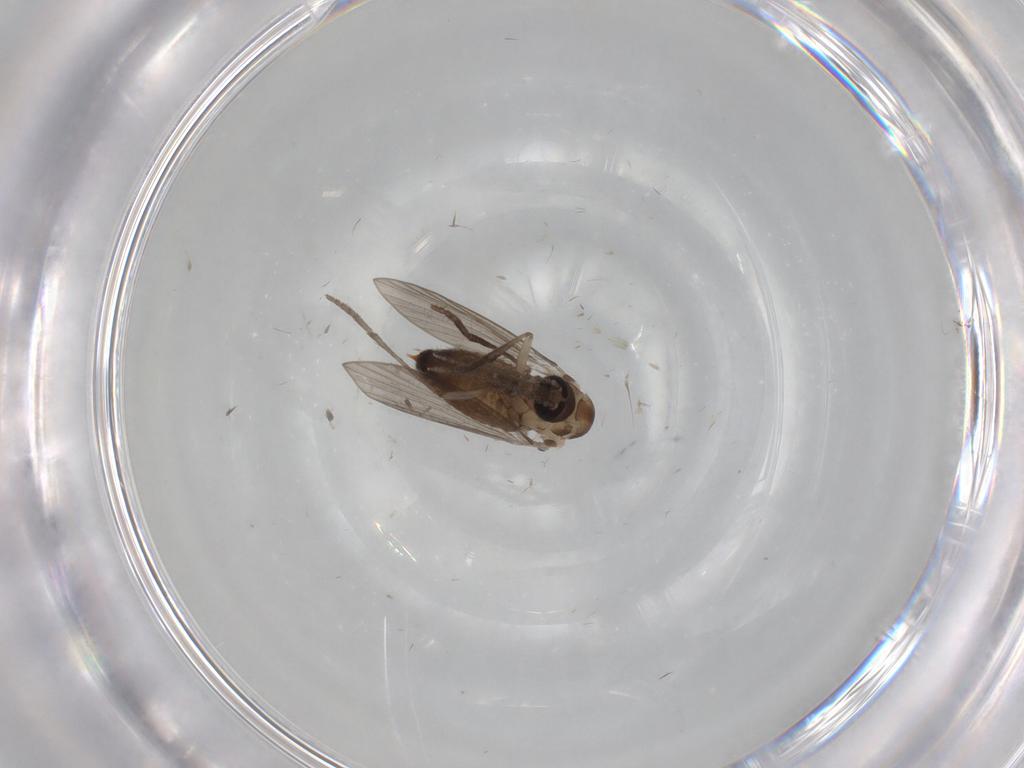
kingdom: Animalia
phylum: Arthropoda
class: Insecta
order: Diptera
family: Psychodidae
